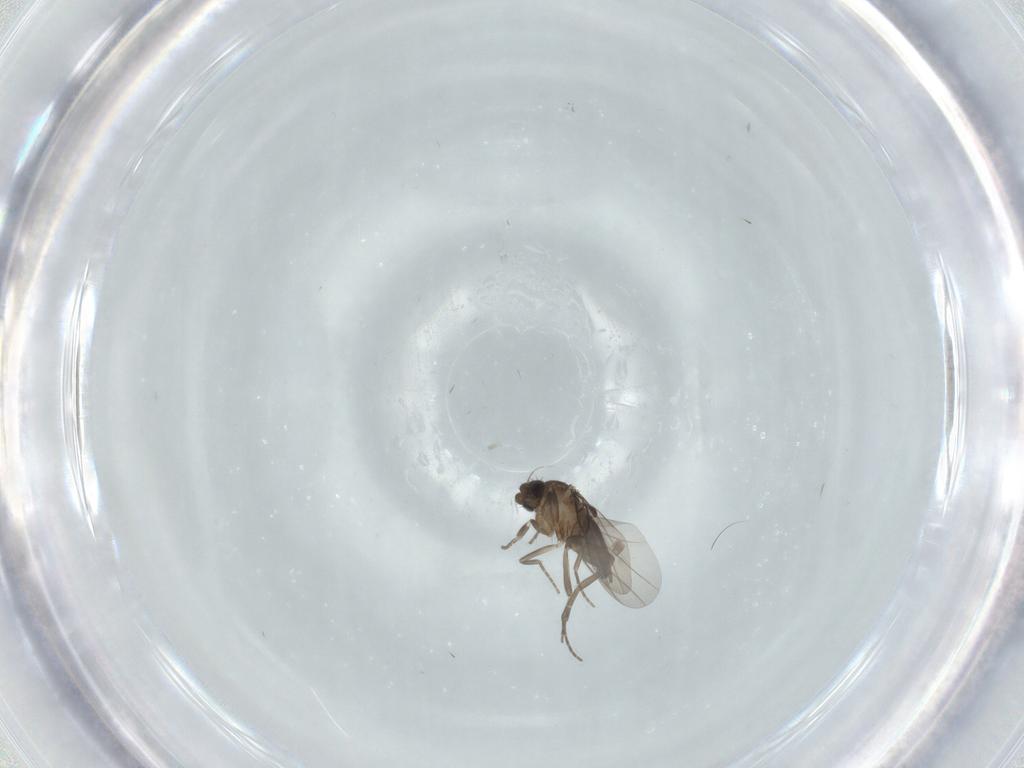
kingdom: Animalia
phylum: Arthropoda
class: Insecta
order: Diptera
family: Phoridae
